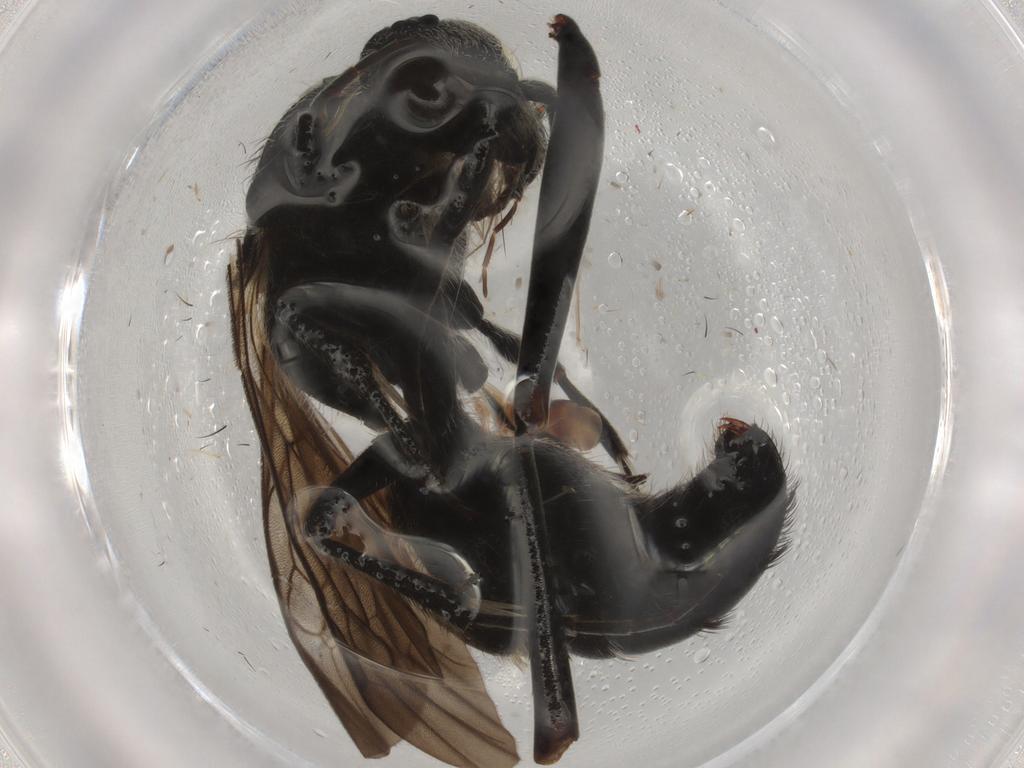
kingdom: Animalia
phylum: Arthropoda
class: Insecta
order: Hymenoptera
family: Pompilidae
